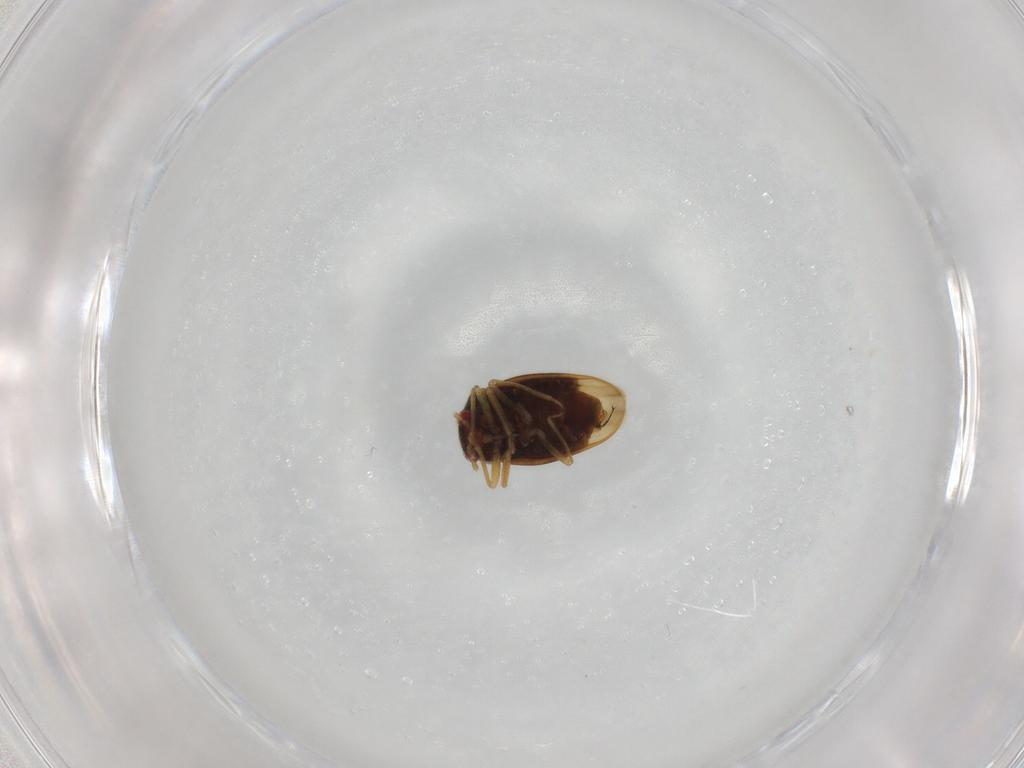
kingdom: Animalia
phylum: Arthropoda
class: Insecta
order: Hemiptera
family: Schizopteridae
